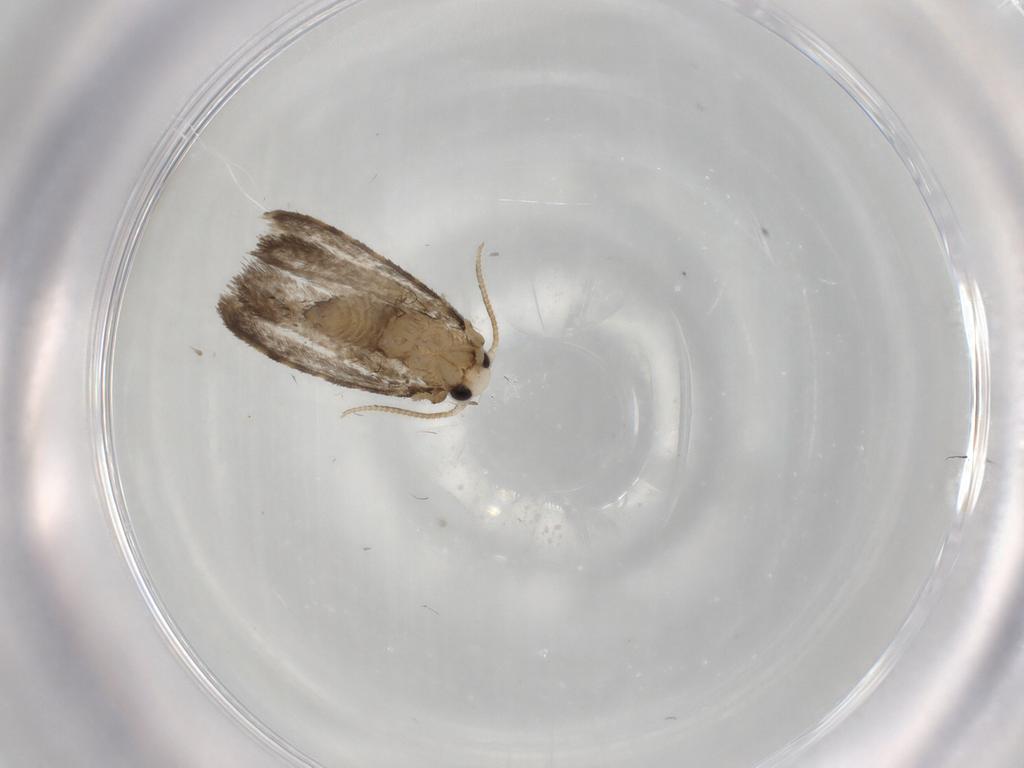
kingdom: Animalia
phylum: Arthropoda
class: Insecta
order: Lepidoptera
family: Psychidae
